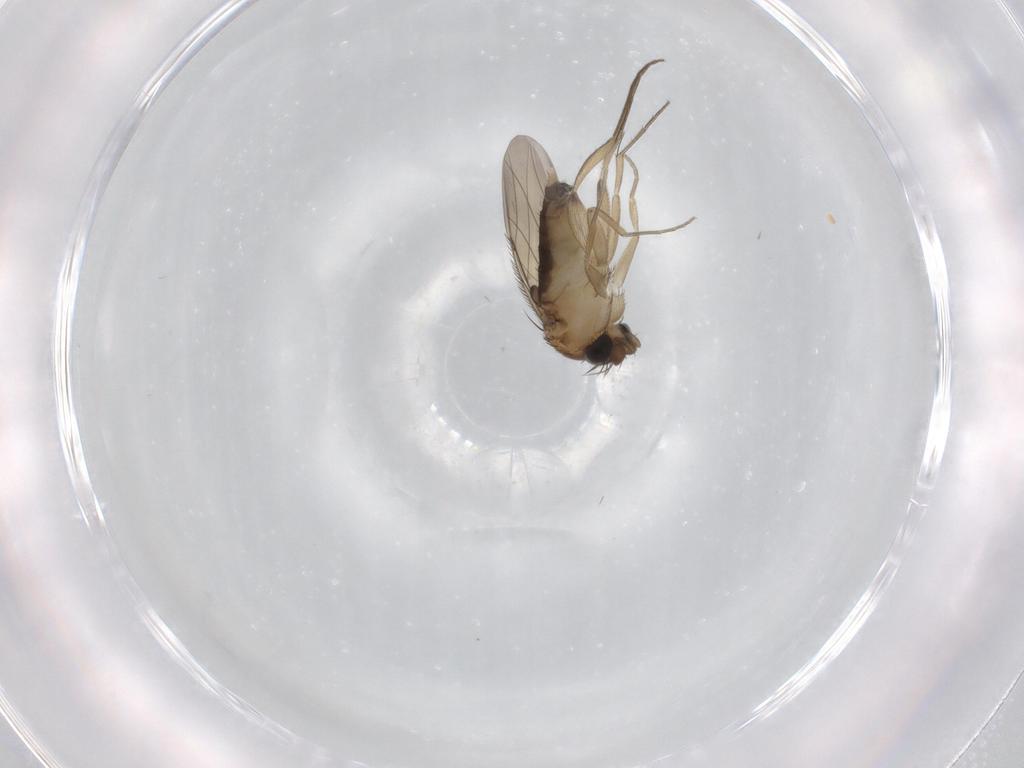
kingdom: Animalia
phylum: Arthropoda
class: Insecta
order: Diptera
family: Phoridae
